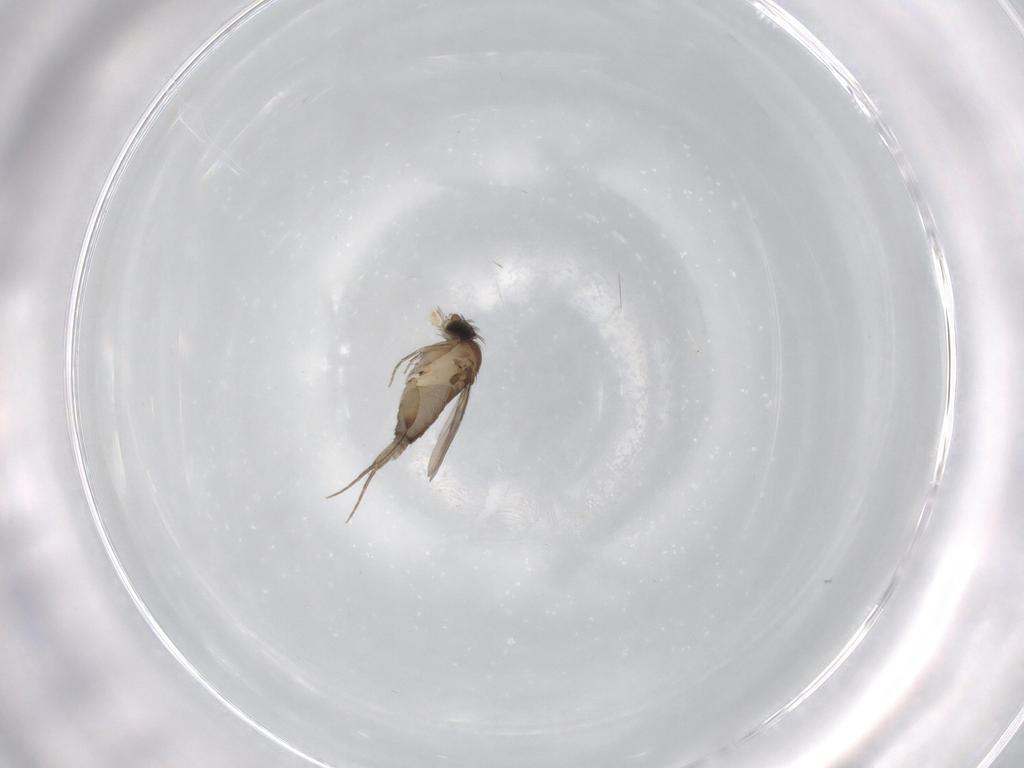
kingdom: Animalia
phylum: Arthropoda
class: Insecta
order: Diptera
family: Phoridae
